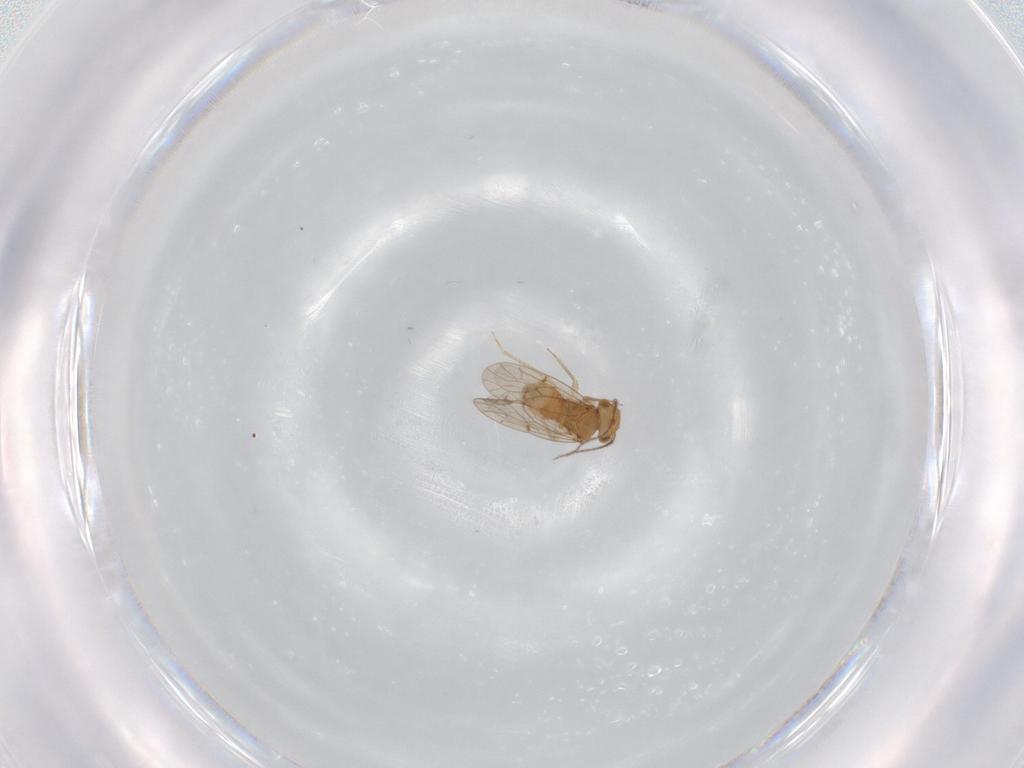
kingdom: Animalia
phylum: Arthropoda
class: Insecta
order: Psocodea
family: Ectopsocidae
